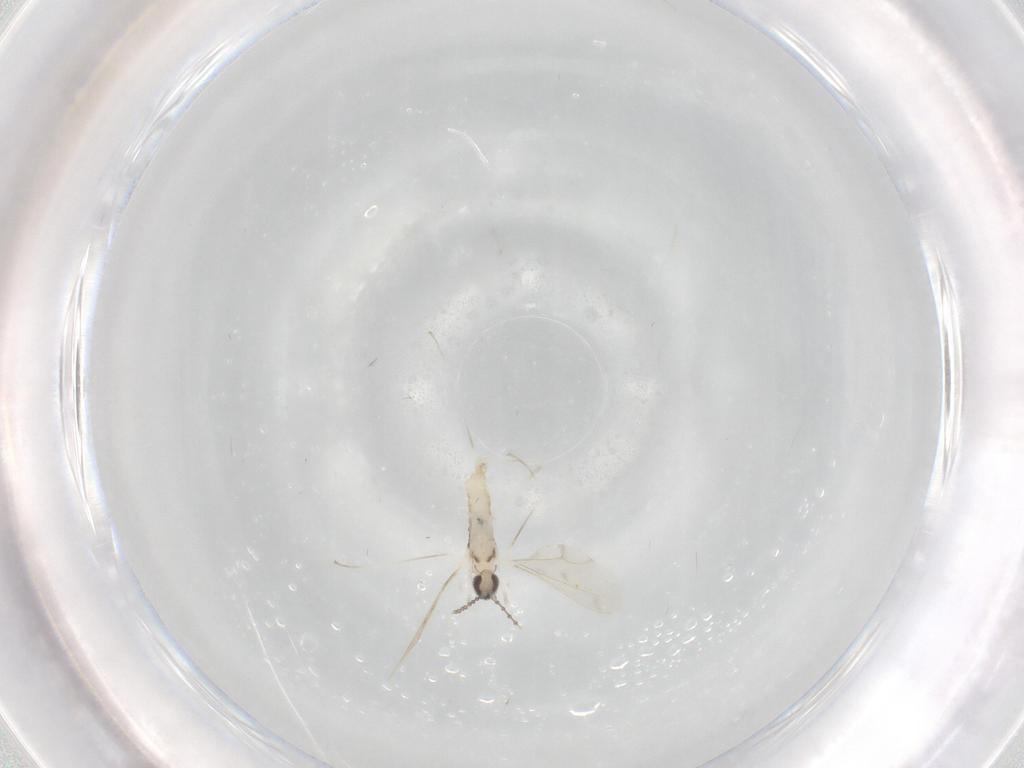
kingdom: Animalia
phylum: Arthropoda
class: Insecta
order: Diptera
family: Cecidomyiidae
